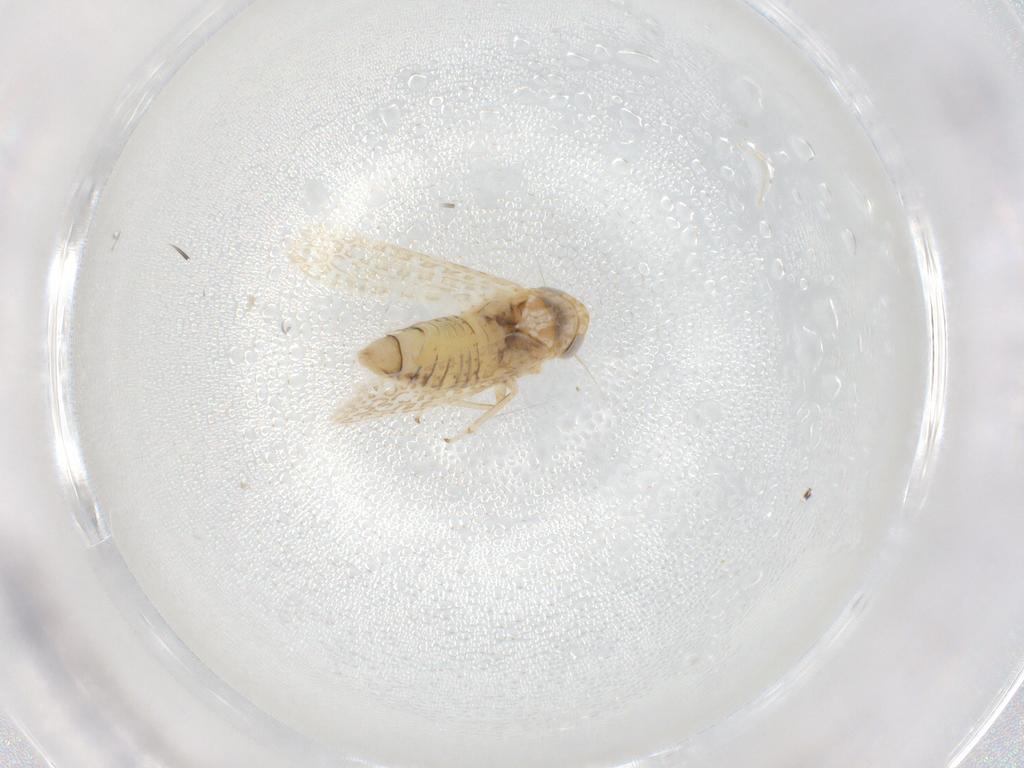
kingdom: Animalia
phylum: Arthropoda
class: Insecta
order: Hemiptera
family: Cicadellidae
